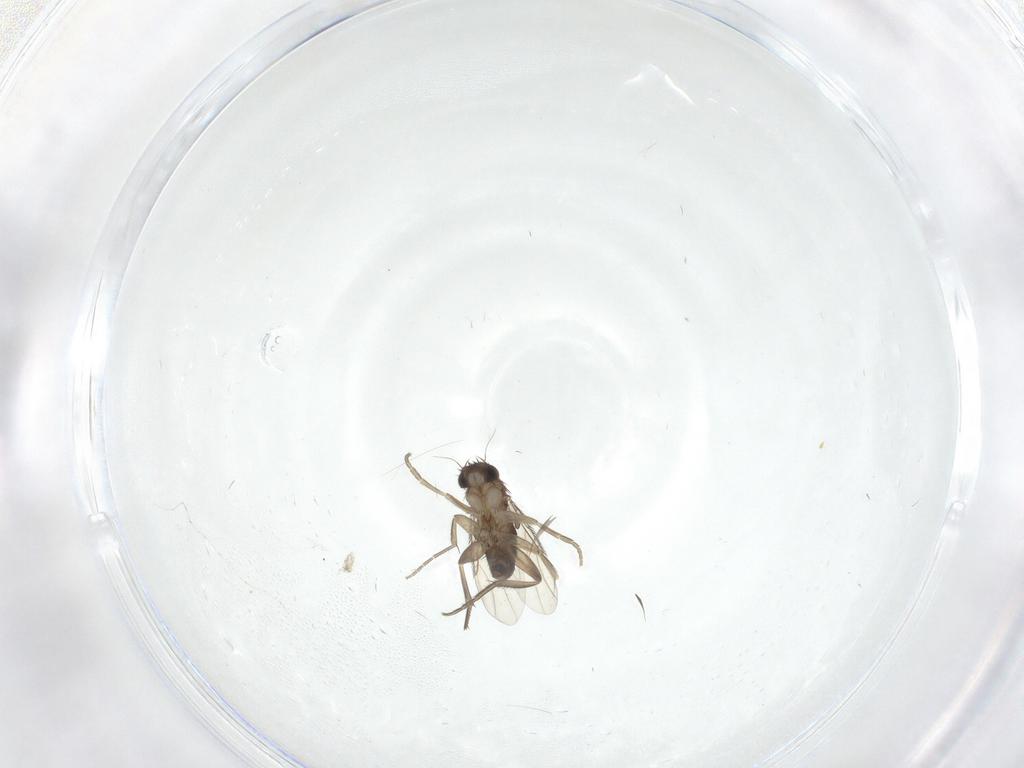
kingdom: Animalia
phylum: Arthropoda
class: Insecta
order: Diptera
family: Phoridae
